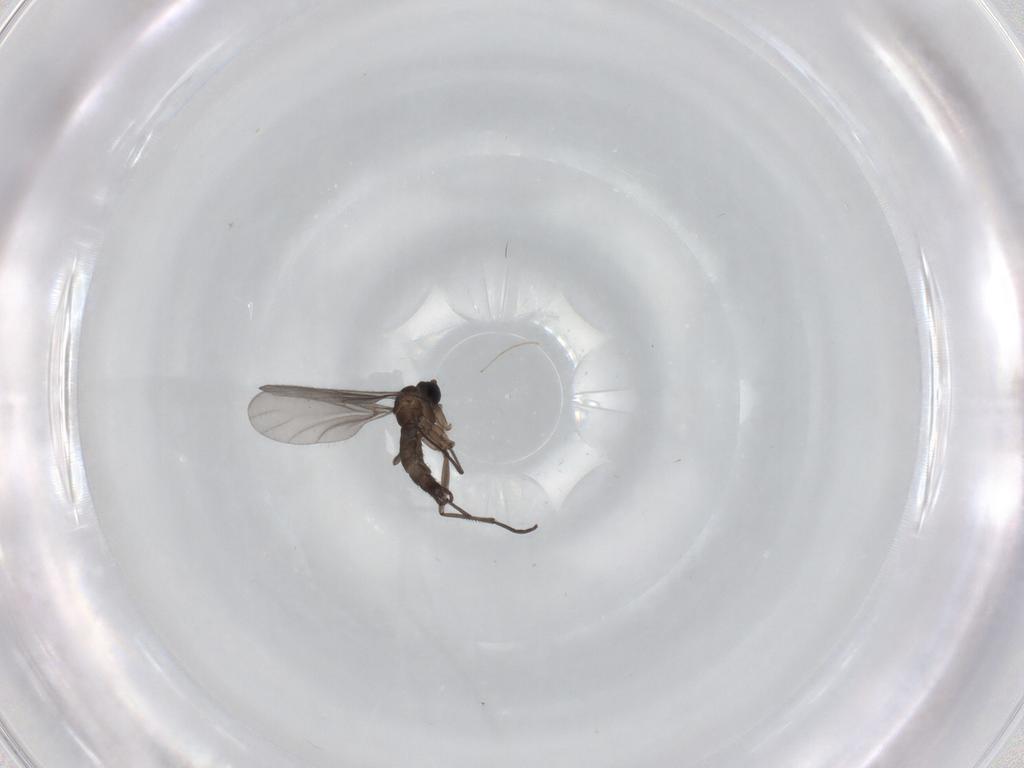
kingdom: Animalia
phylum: Arthropoda
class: Insecta
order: Diptera
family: Sciaridae
